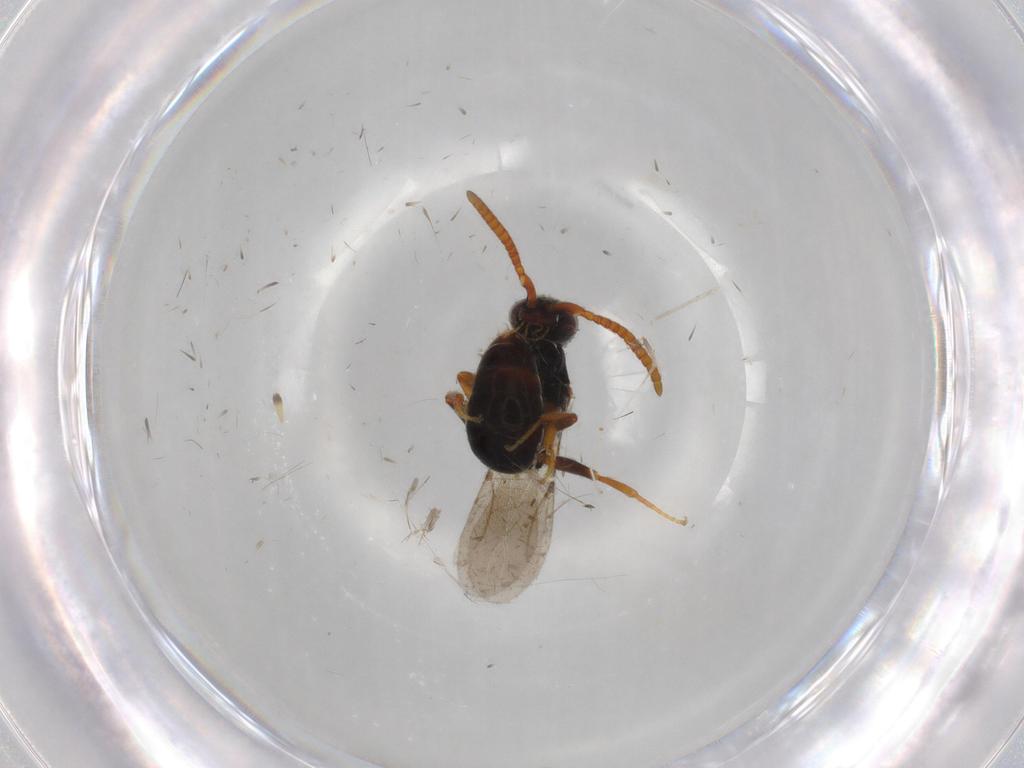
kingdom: Animalia
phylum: Arthropoda
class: Insecta
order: Hymenoptera
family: Bethylidae
